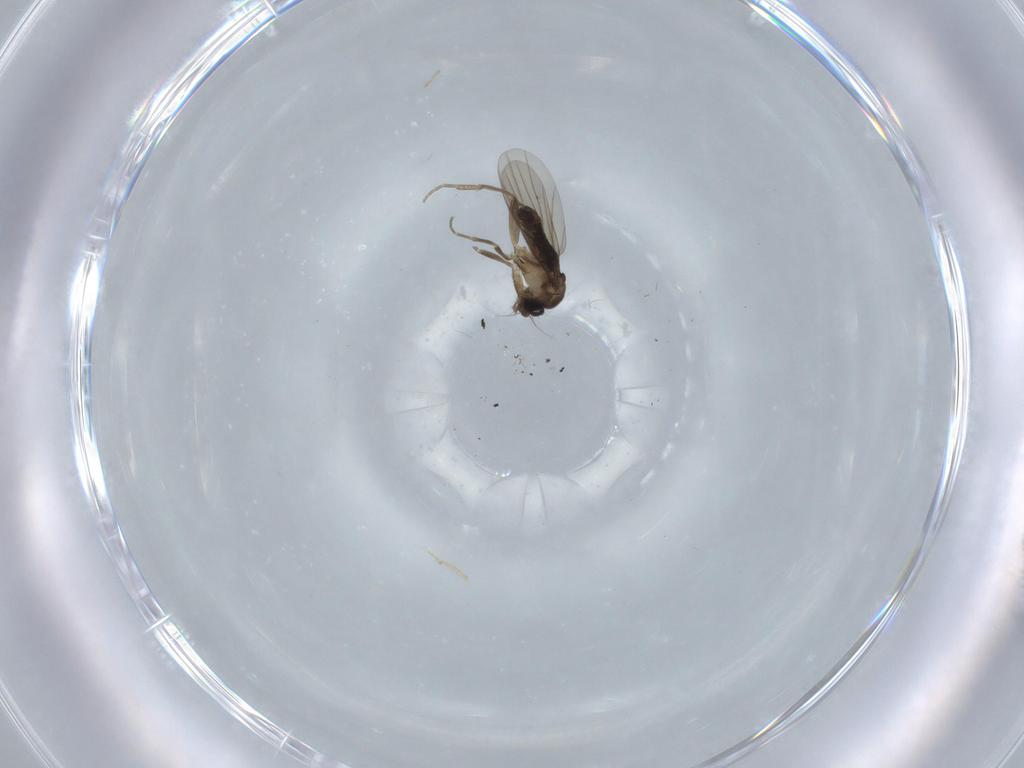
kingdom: Animalia
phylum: Arthropoda
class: Insecta
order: Diptera
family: Phoridae
